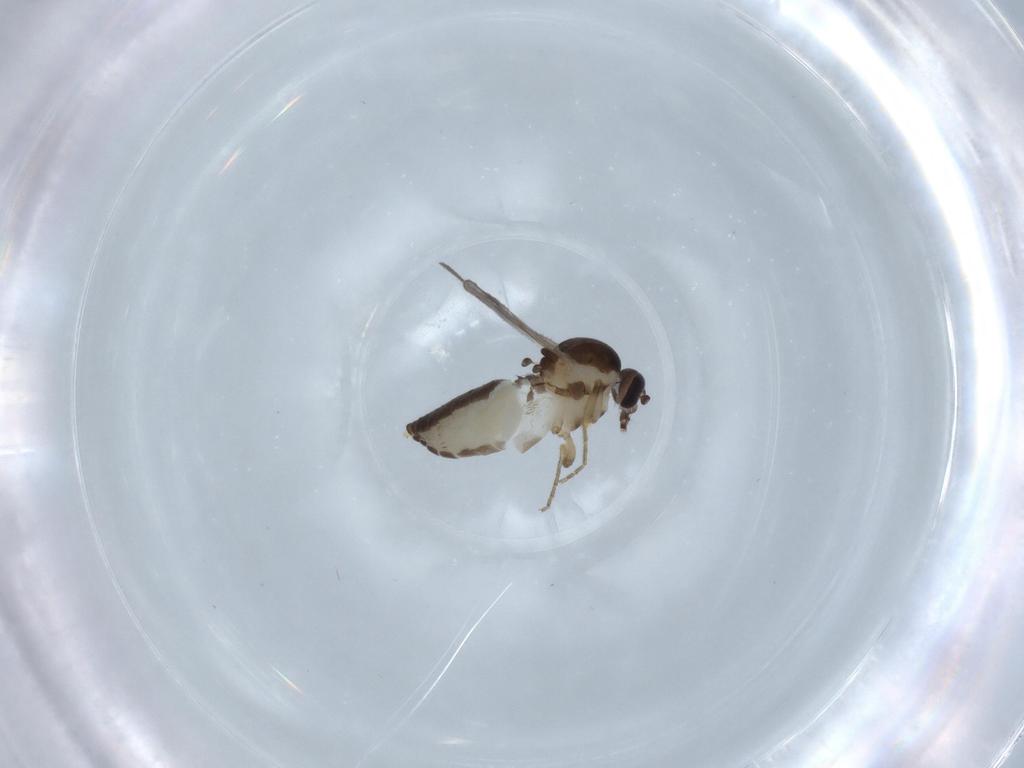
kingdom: Animalia
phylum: Arthropoda
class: Insecta
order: Diptera
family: Ceratopogonidae
